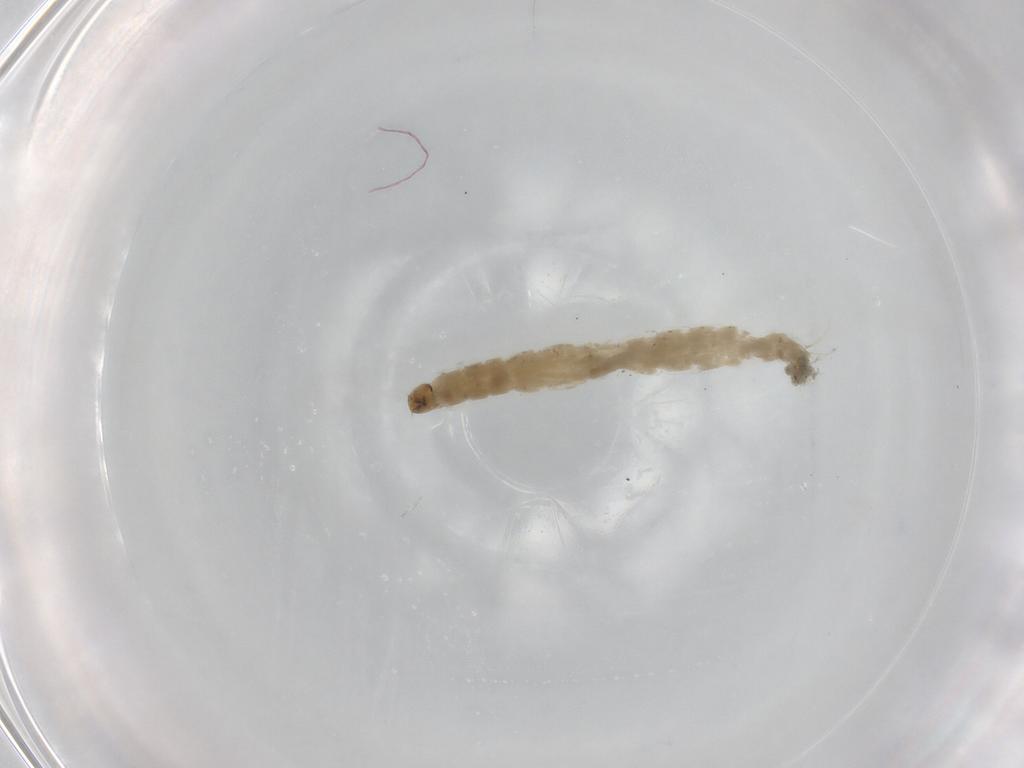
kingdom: Animalia
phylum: Arthropoda
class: Insecta
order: Diptera
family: Chironomidae
